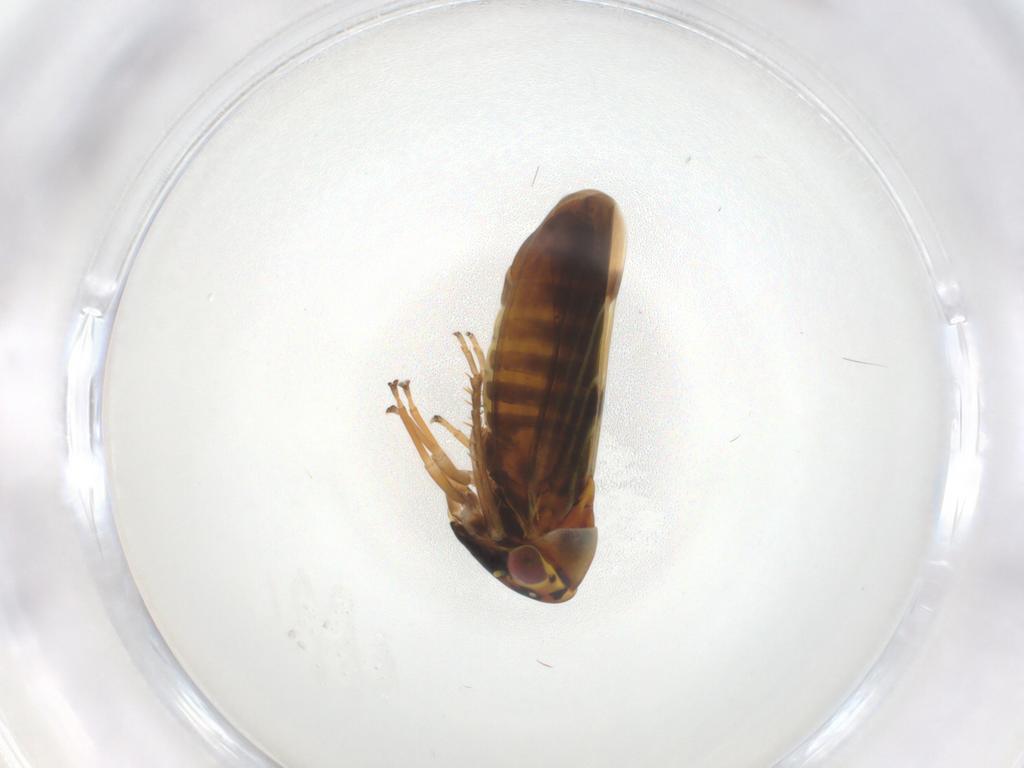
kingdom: Animalia
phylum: Arthropoda
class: Insecta
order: Hemiptera
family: Cicadellidae
